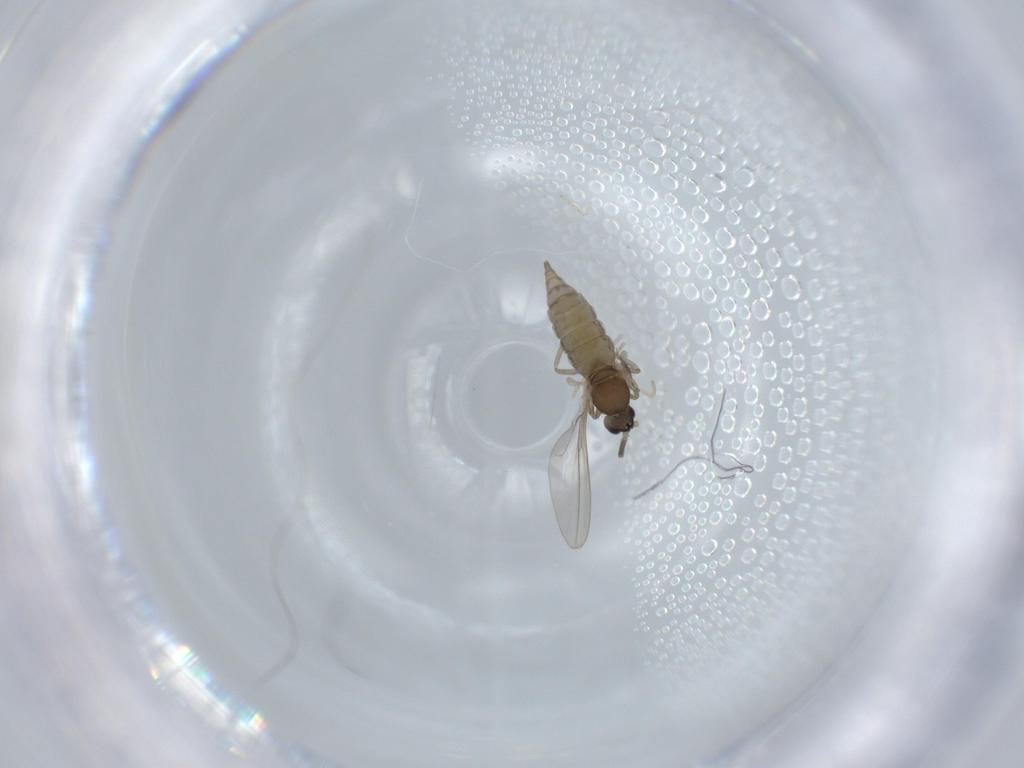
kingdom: Animalia
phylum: Arthropoda
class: Insecta
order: Diptera
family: Cecidomyiidae
